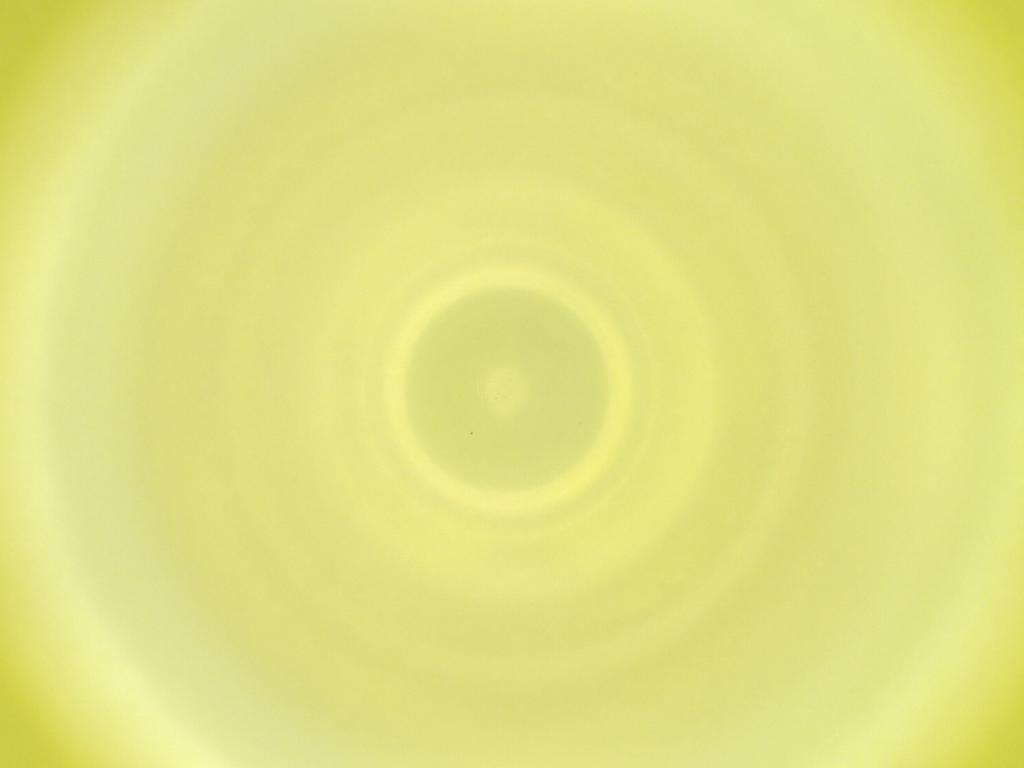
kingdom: Animalia
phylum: Arthropoda
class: Insecta
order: Diptera
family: Cecidomyiidae
